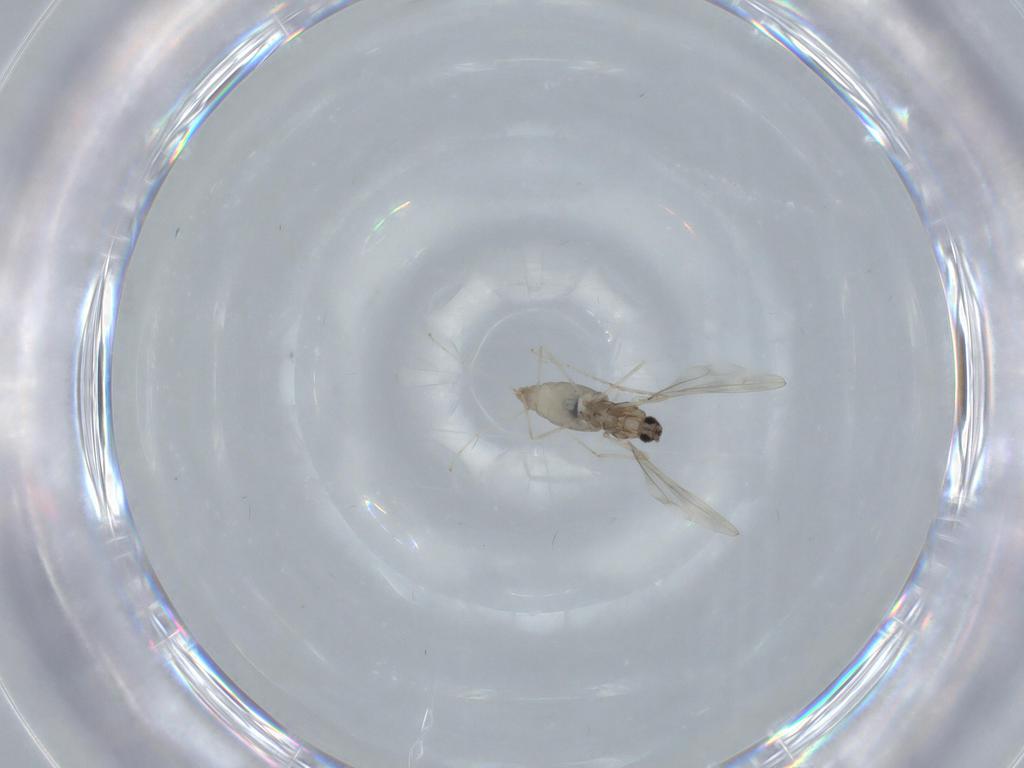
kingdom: Animalia
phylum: Arthropoda
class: Insecta
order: Diptera
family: Cecidomyiidae
